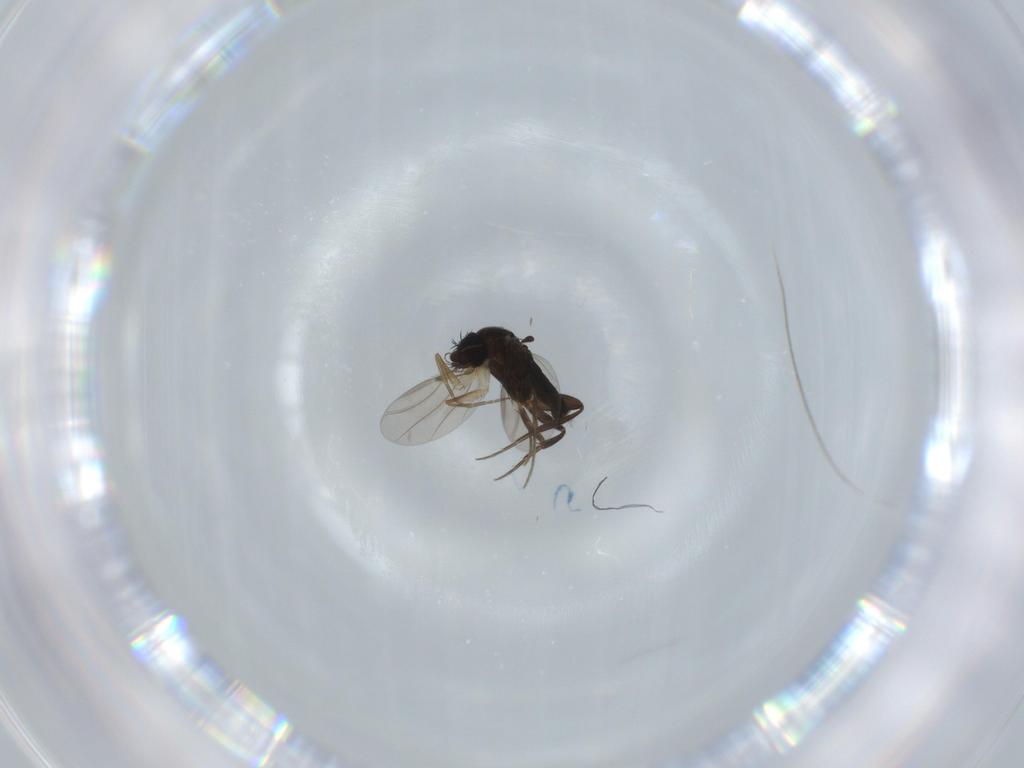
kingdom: Animalia
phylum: Arthropoda
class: Insecta
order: Diptera
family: Phoridae
